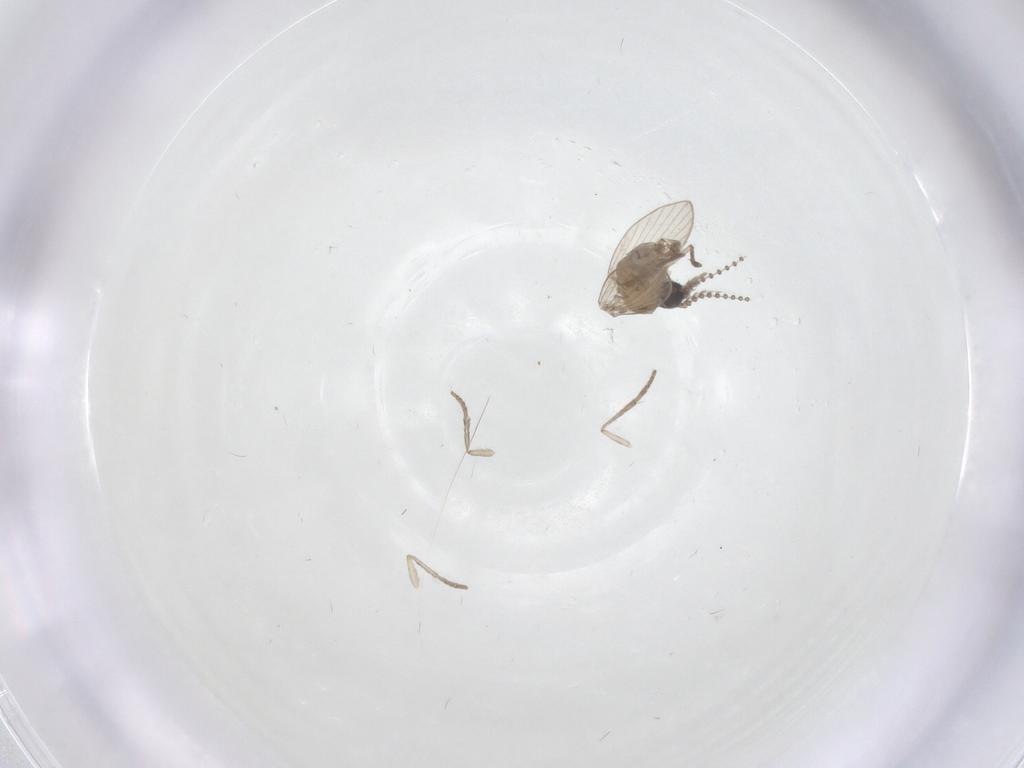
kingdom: Animalia
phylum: Arthropoda
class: Insecta
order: Diptera
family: Psychodidae
